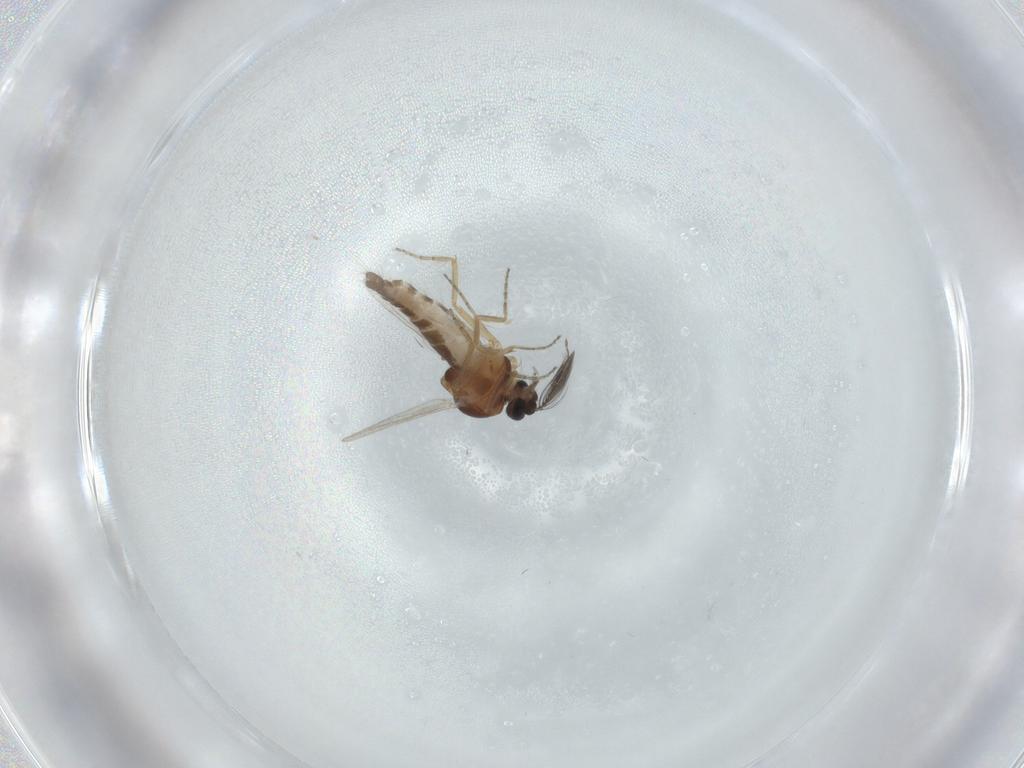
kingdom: Animalia
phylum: Arthropoda
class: Insecta
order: Diptera
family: Ceratopogonidae
